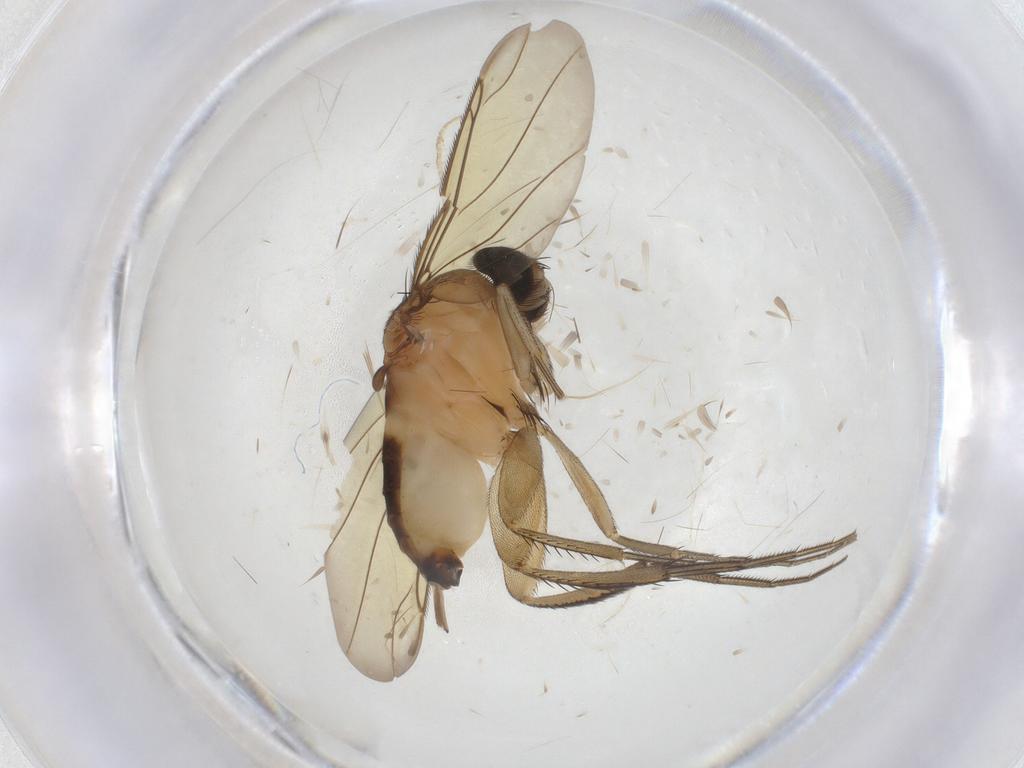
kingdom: Animalia
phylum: Arthropoda
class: Insecta
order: Diptera
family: Phoridae
